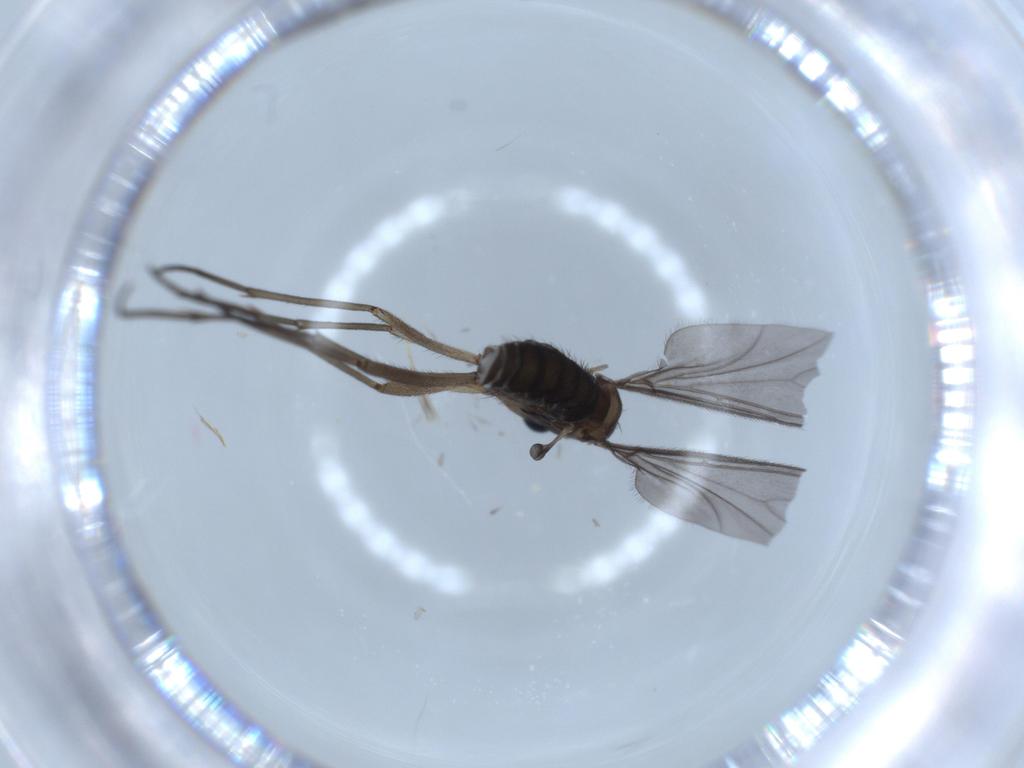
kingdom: Animalia
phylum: Arthropoda
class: Insecta
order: Diptera
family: Sciaridae
